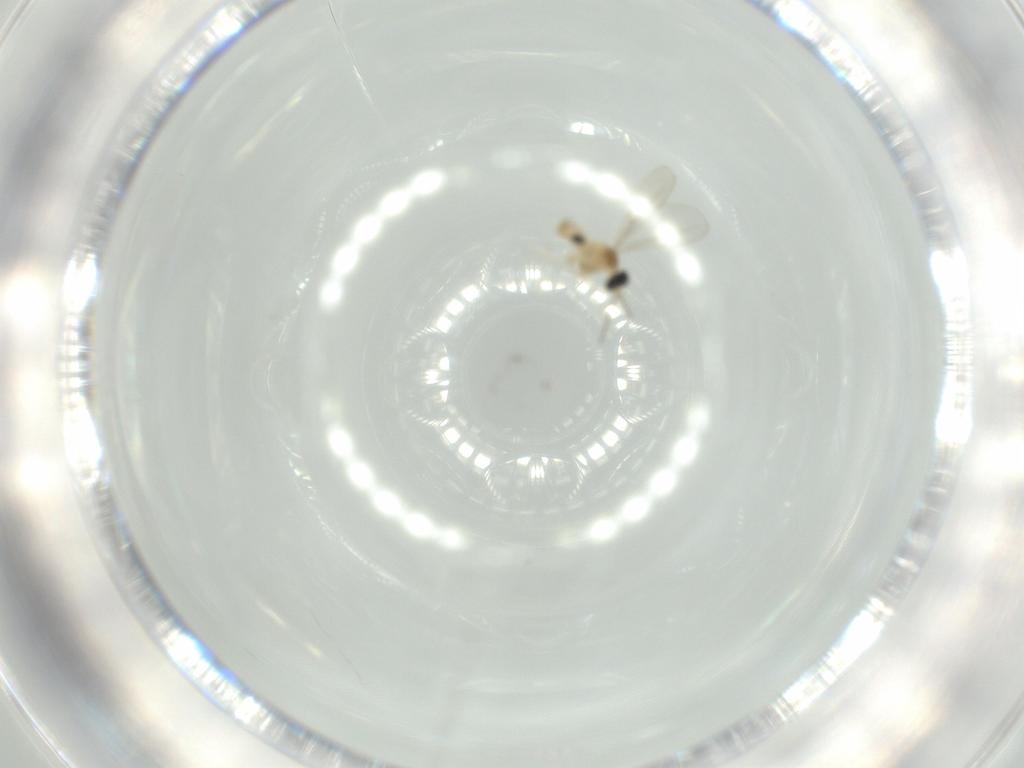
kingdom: Animalia
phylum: Arthropoda
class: Insecta
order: Diptera
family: Cecidomyiidae
